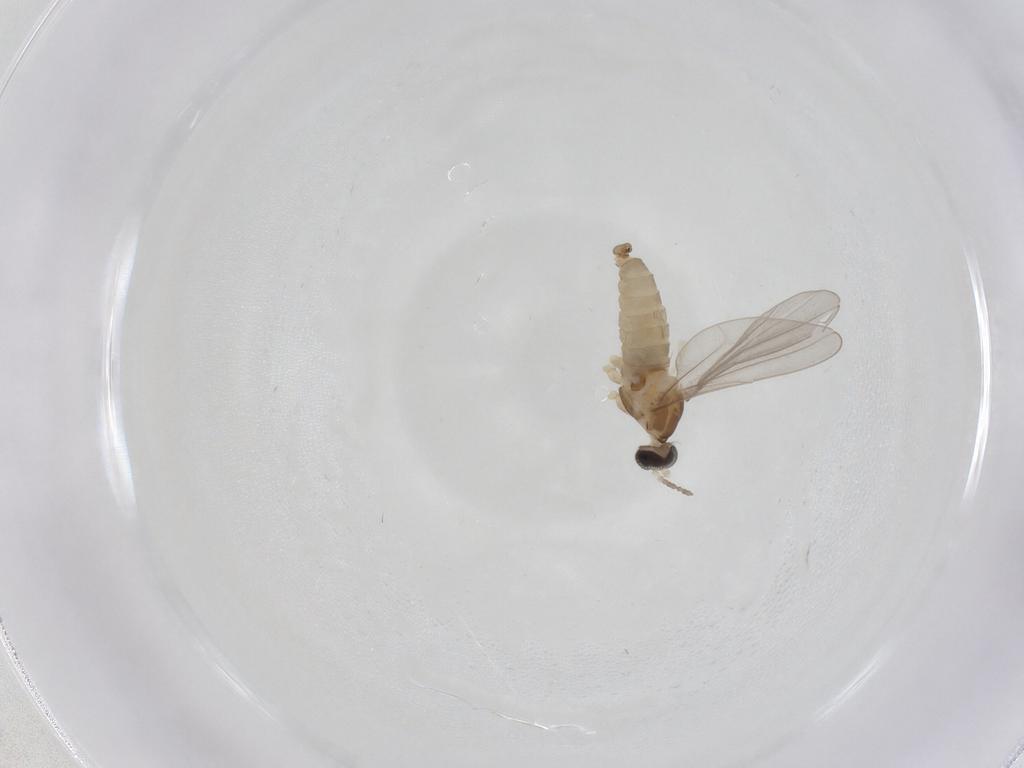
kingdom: Animalia
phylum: Arthropoda
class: Insecta
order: Diptera
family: Cecidomyiidae
